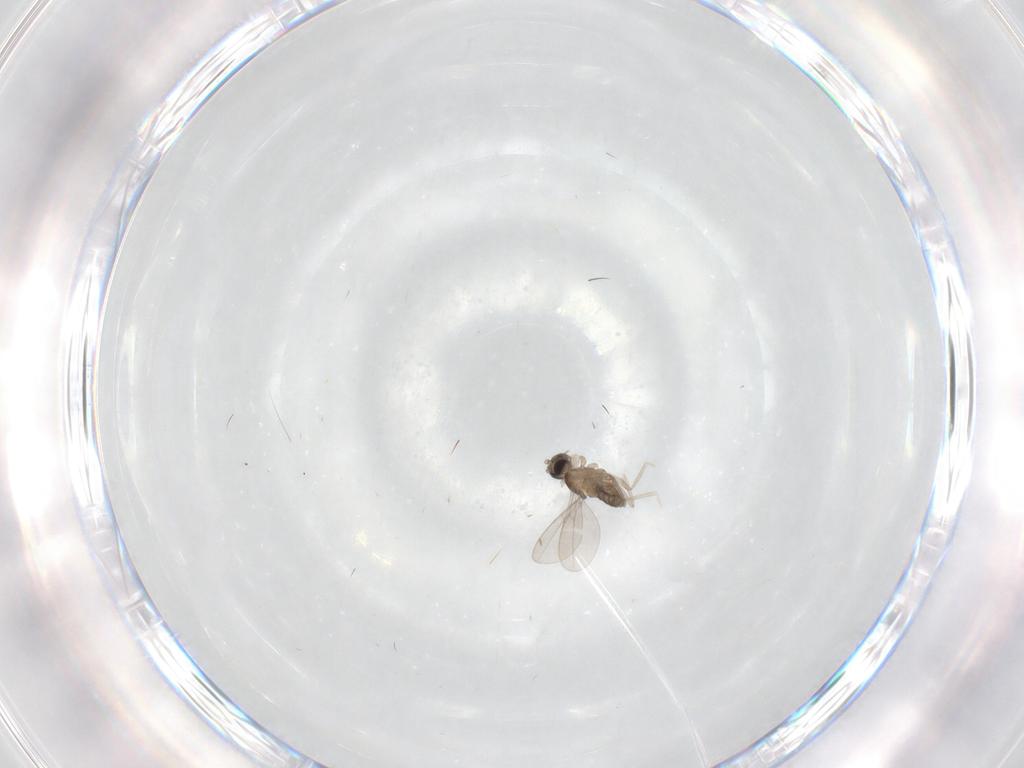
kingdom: Animalia
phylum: Arthropoda
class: Insecta
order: Diptera
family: Cecidomyiidae
